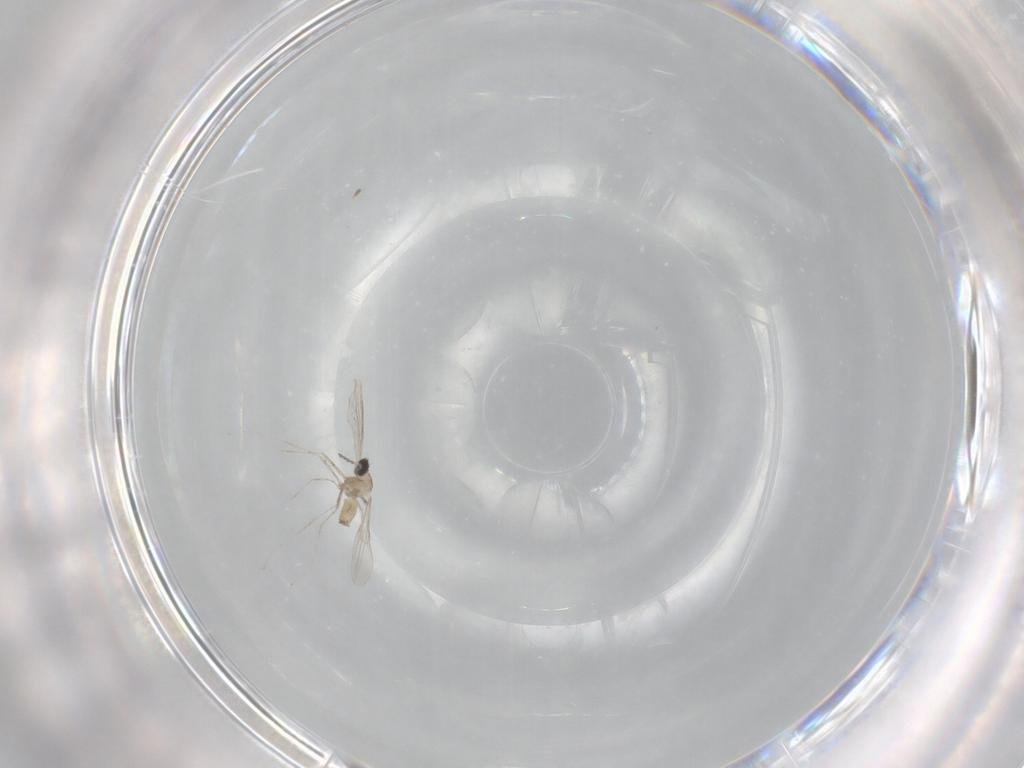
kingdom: Animalia
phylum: Arthropoda
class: Insecta
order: Diptera
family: Cecidomyiidae
